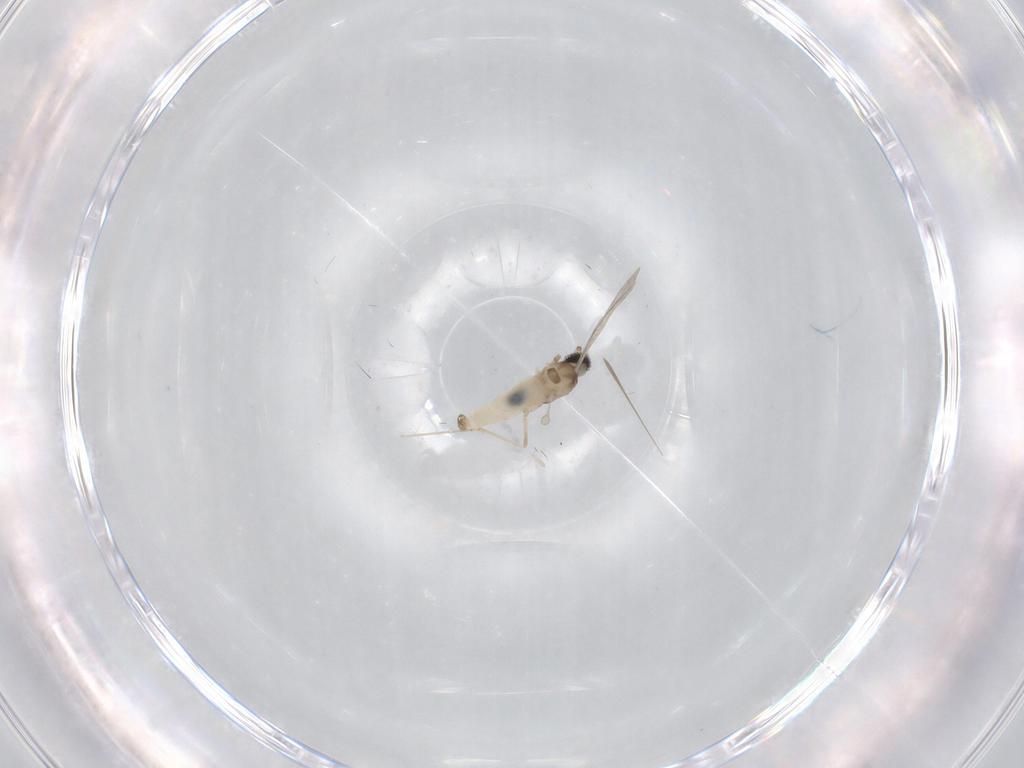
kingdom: Animalia
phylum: Arthropoda
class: Insecta
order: Diptera
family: Cecidomyiidae
